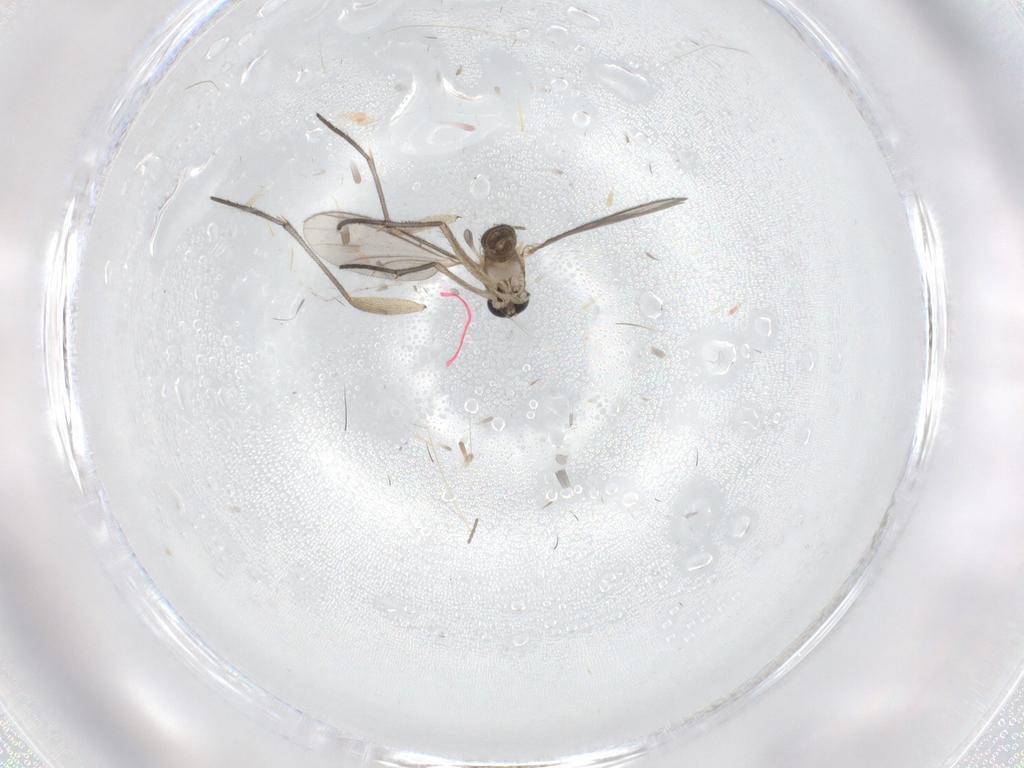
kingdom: Animalia
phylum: Arthropoda
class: Insecta
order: Diptera
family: Sciaridae
